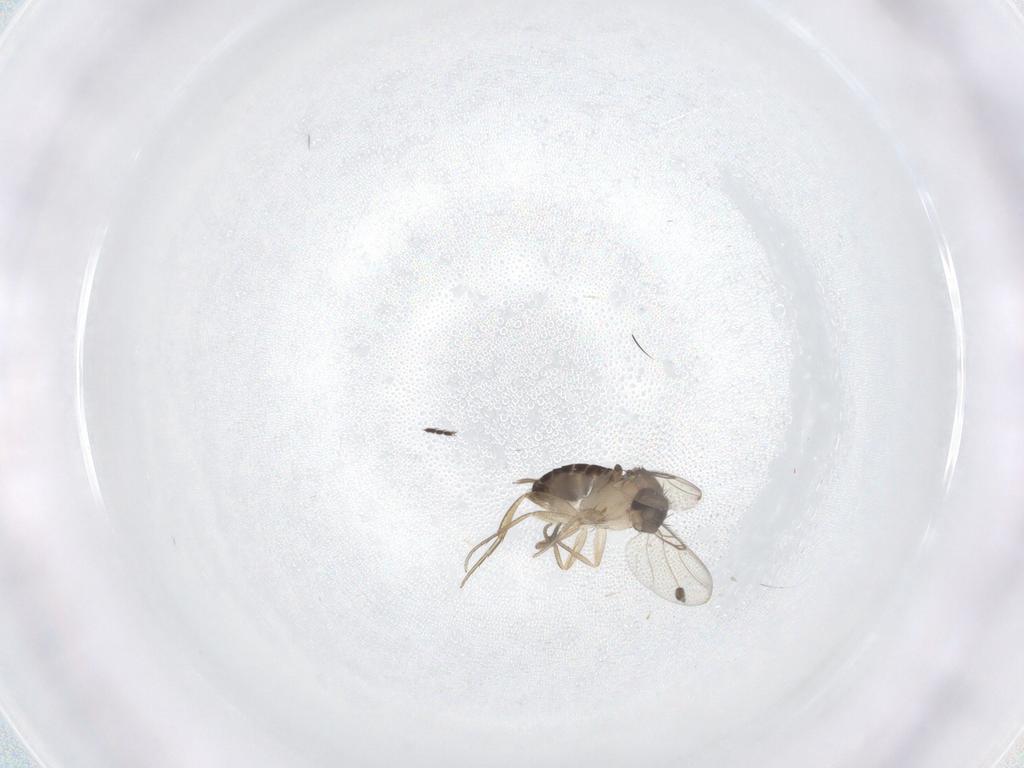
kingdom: Animalia
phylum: Arthropoda
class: Insecta
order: Diptera
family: Phoridae
